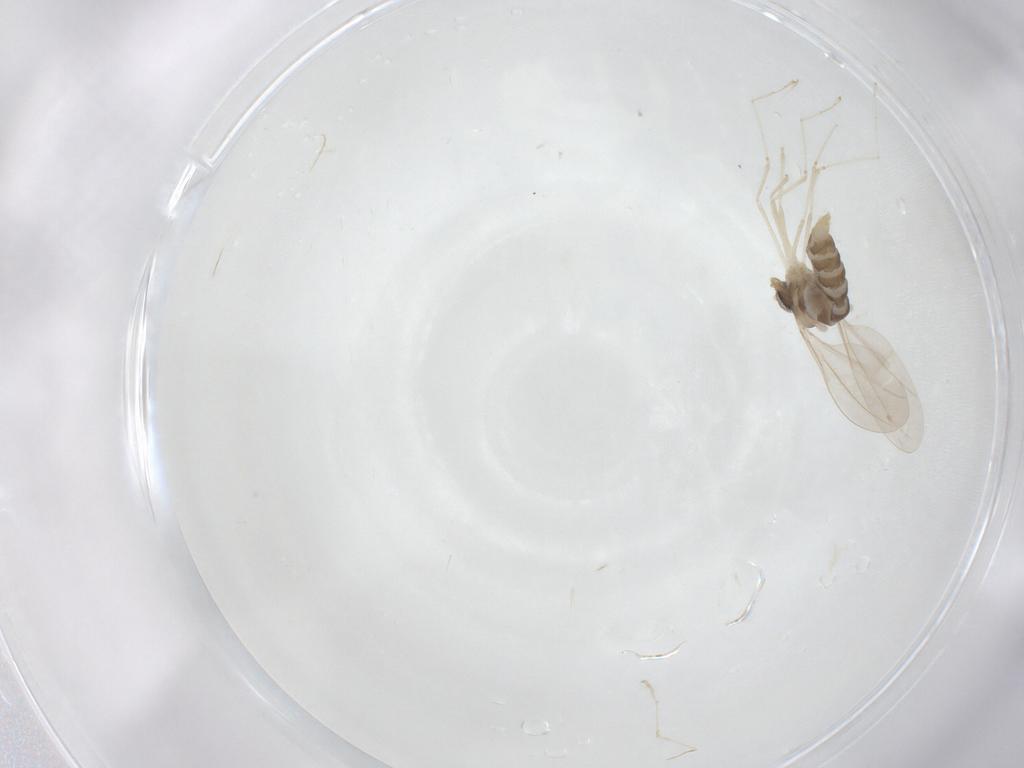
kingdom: Animalia
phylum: Arthropoda
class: Insecta
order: Diptera
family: Cecidomyiidae
